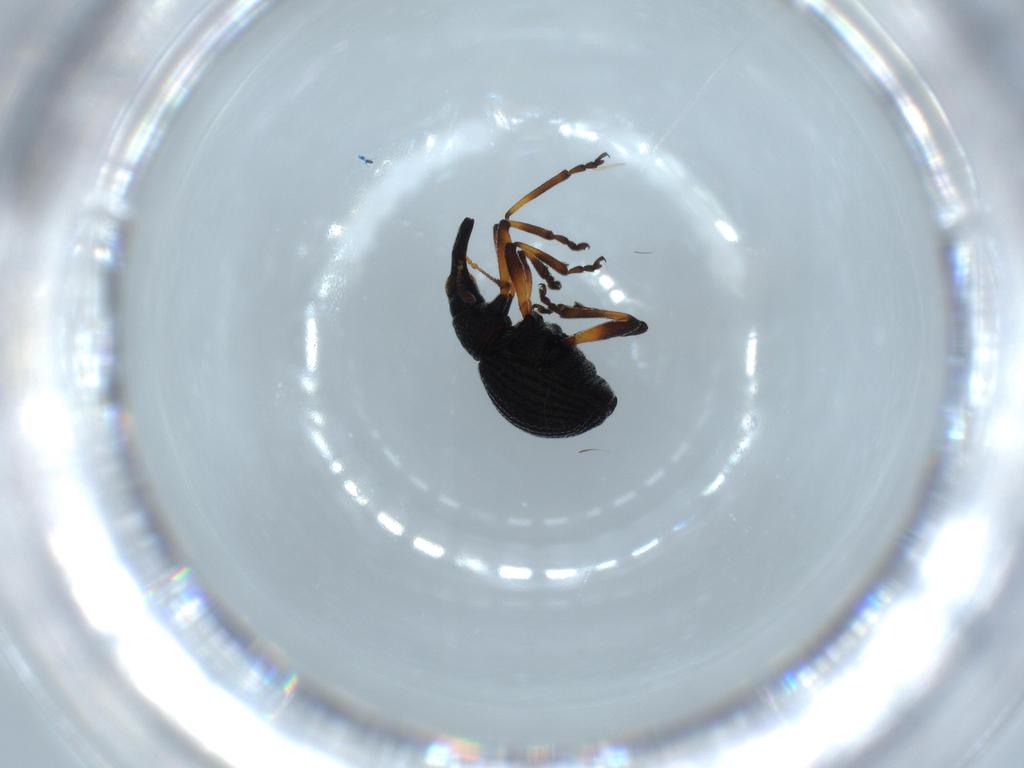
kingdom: Animalia
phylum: Arthropoda
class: Insecta
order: Coleoptera
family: Brentidae
